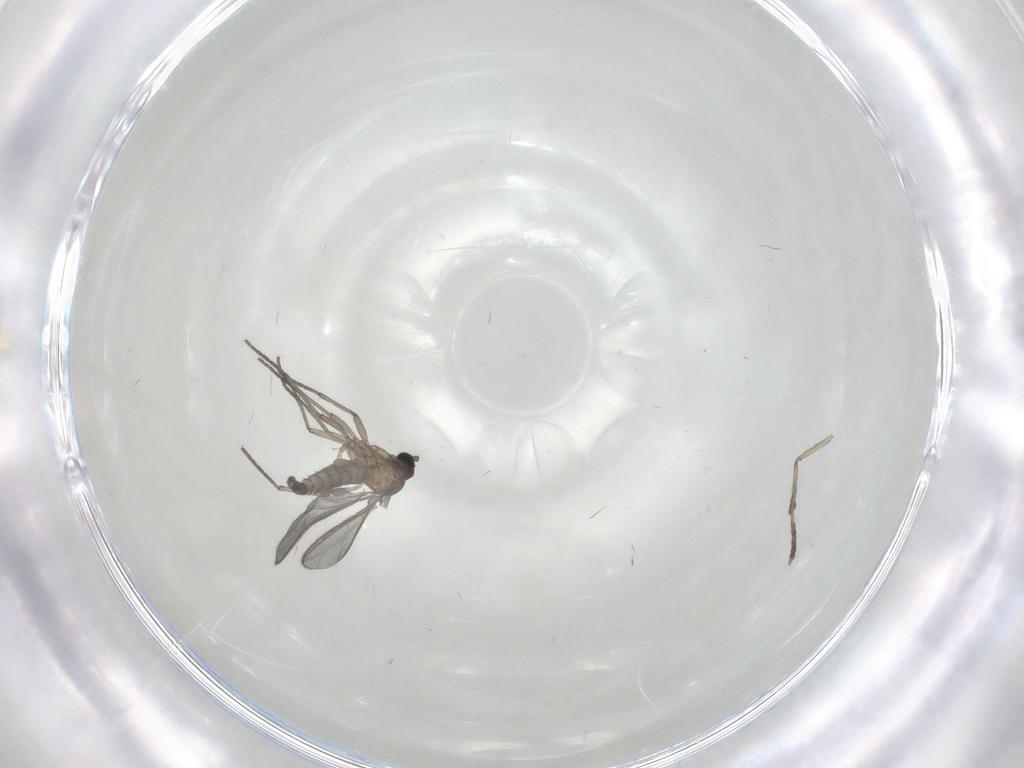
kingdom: Animalia
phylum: Arthropoda
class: Insecta
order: Diptera
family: Sciaridae
